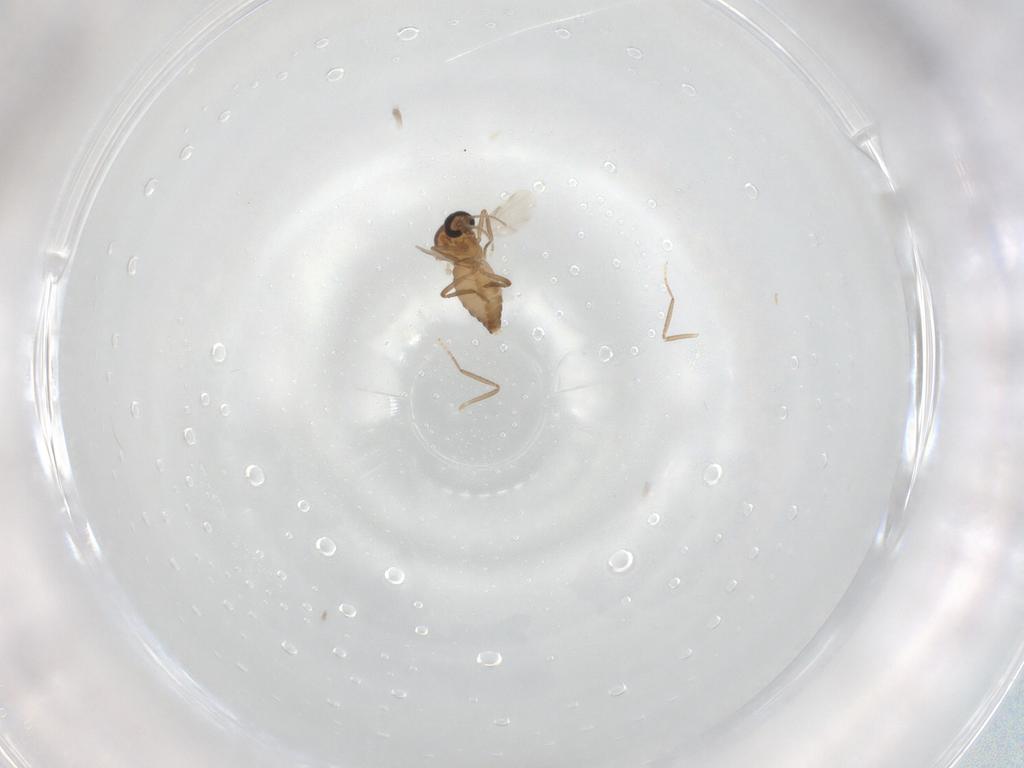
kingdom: Animalia
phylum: Arthropoda
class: Insecta
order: Diptera
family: Ceratopogonidae
